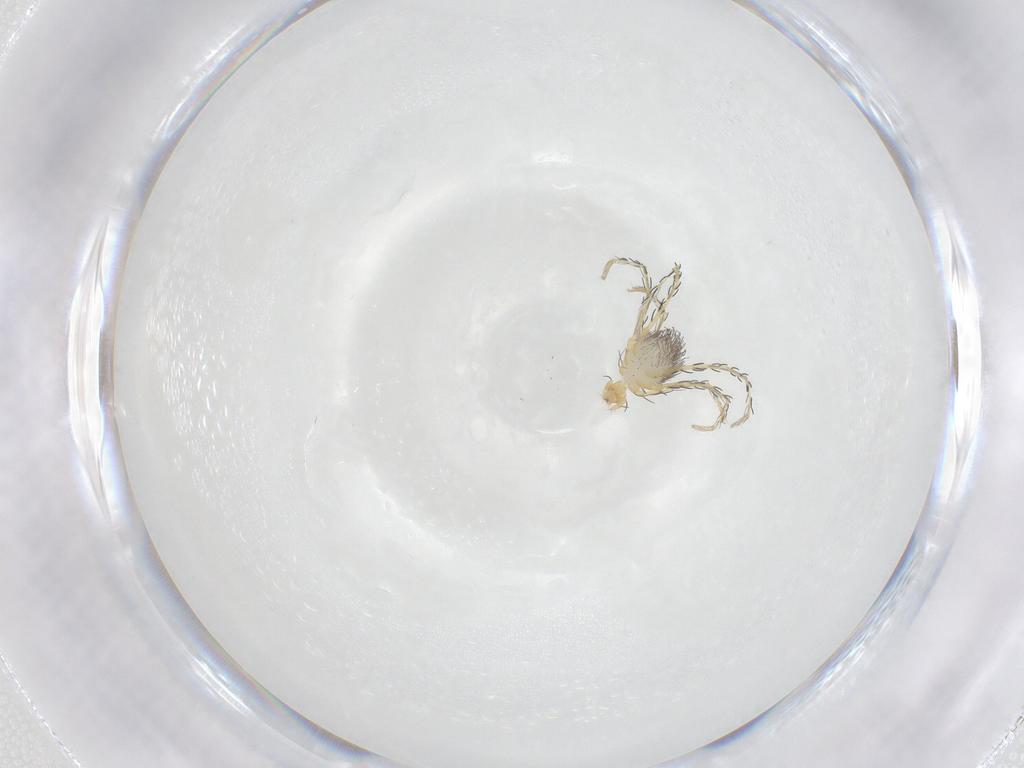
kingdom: Animalia
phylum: Arthropoda
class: Arachnida
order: Trombidiformes
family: Erythraeidae
